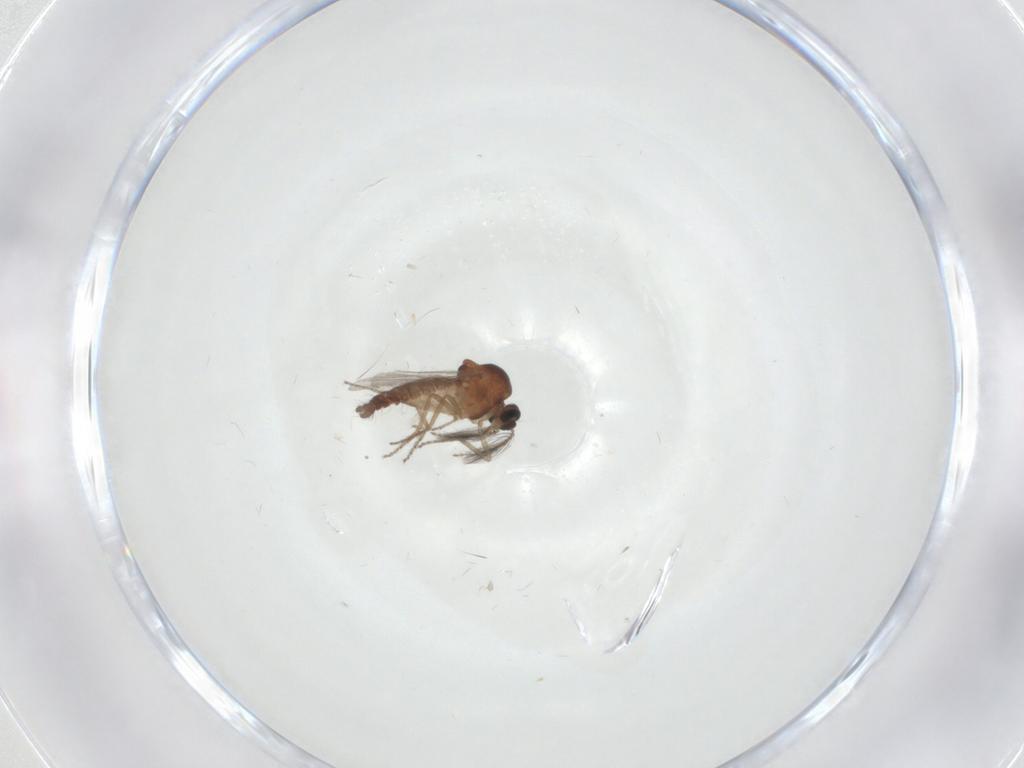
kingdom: Animalia
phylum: Arthropoda
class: Insecta
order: Diptera
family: Ceratopogonidae
